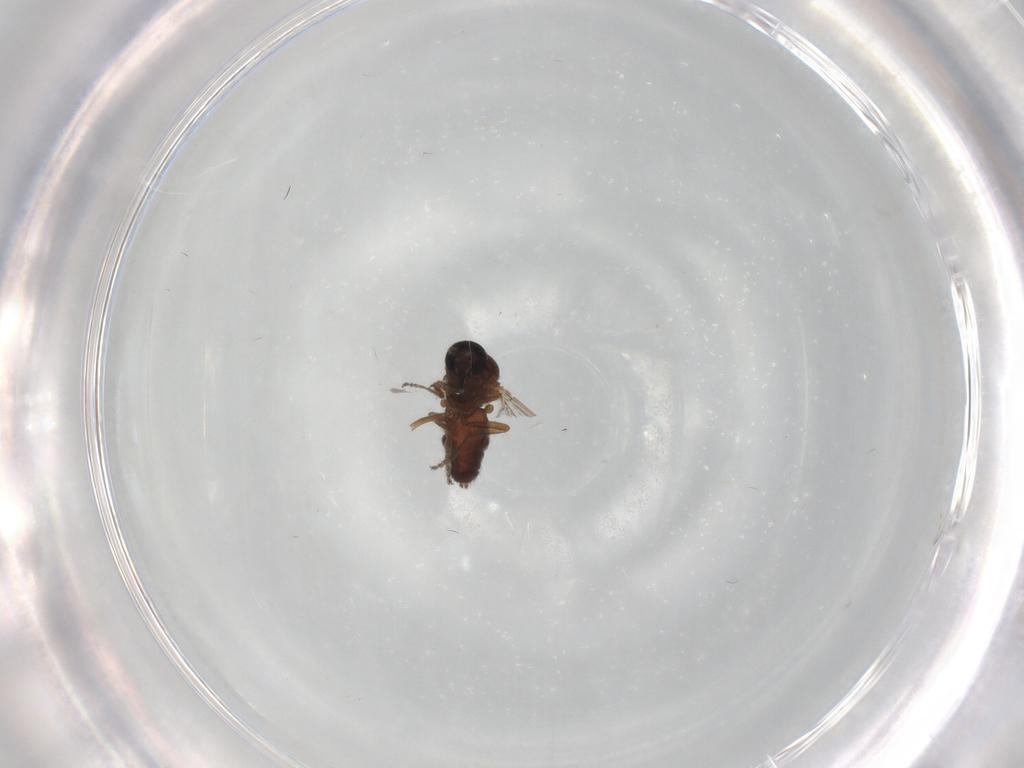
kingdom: Animalia
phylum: Arthropoda
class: Insecta
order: Diptera
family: Ceratopogonidae
